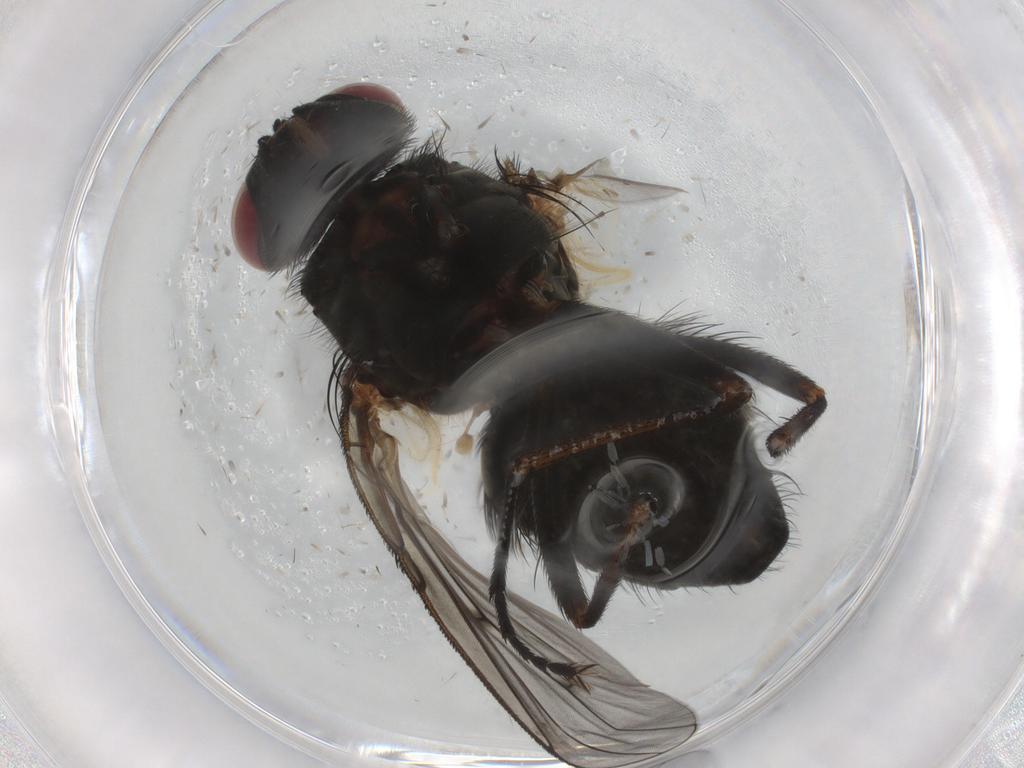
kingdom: Animalia
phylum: Arthropoda
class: Insecta
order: Diptera
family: Muscidae
